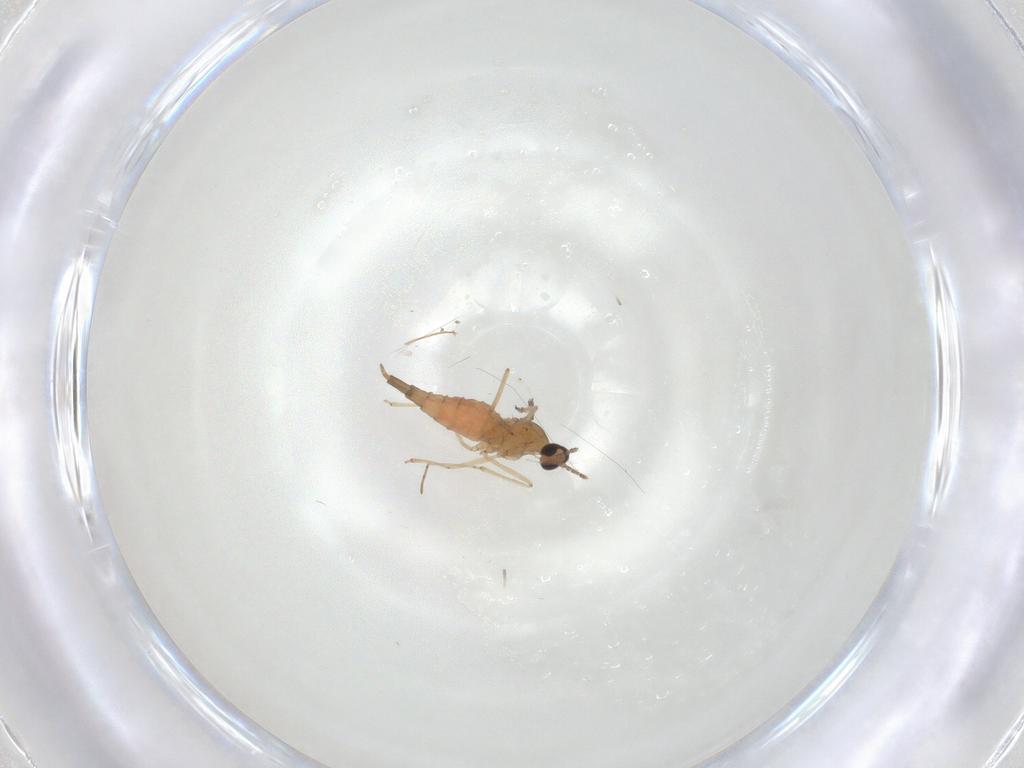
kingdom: Animalia
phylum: Arthropoda
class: Insecta
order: Diptera
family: Cecidomyiidae
